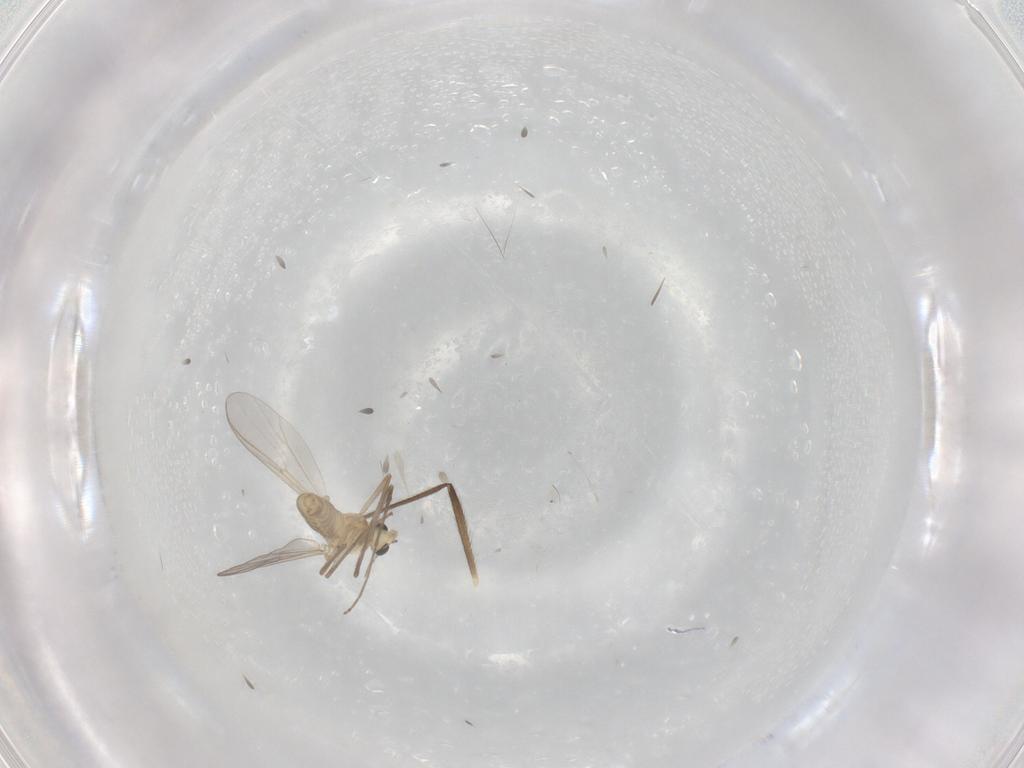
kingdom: Animalia
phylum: Arthropoda
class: Insecta
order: Diptera
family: Chironomidae
